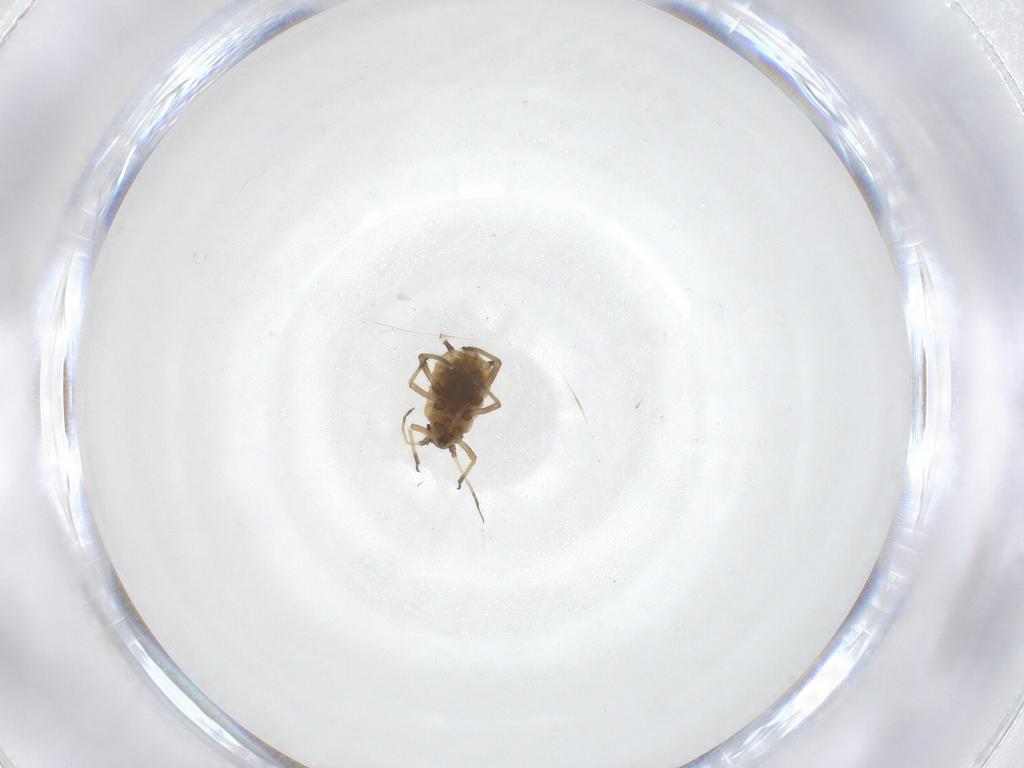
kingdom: Animalia
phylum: Arthropoda
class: Insecta
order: Hemiptera
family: Aphididae
